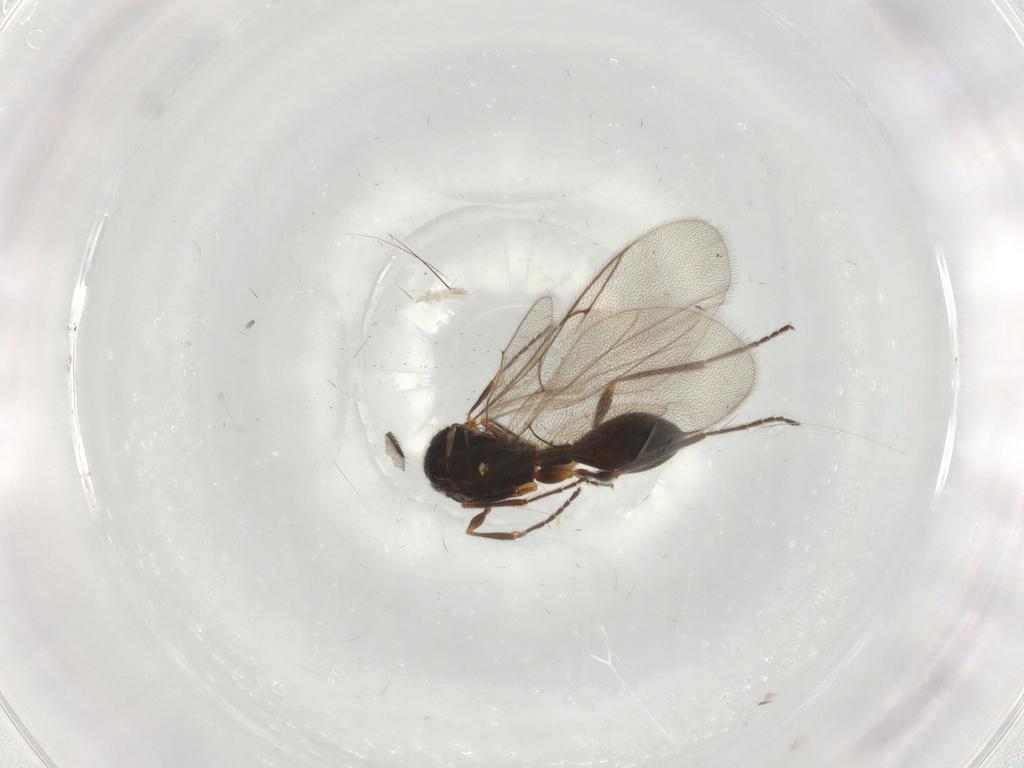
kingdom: Animalia
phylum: Arthropoda
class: Insecta
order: Hymenoptera
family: Diapriidae
